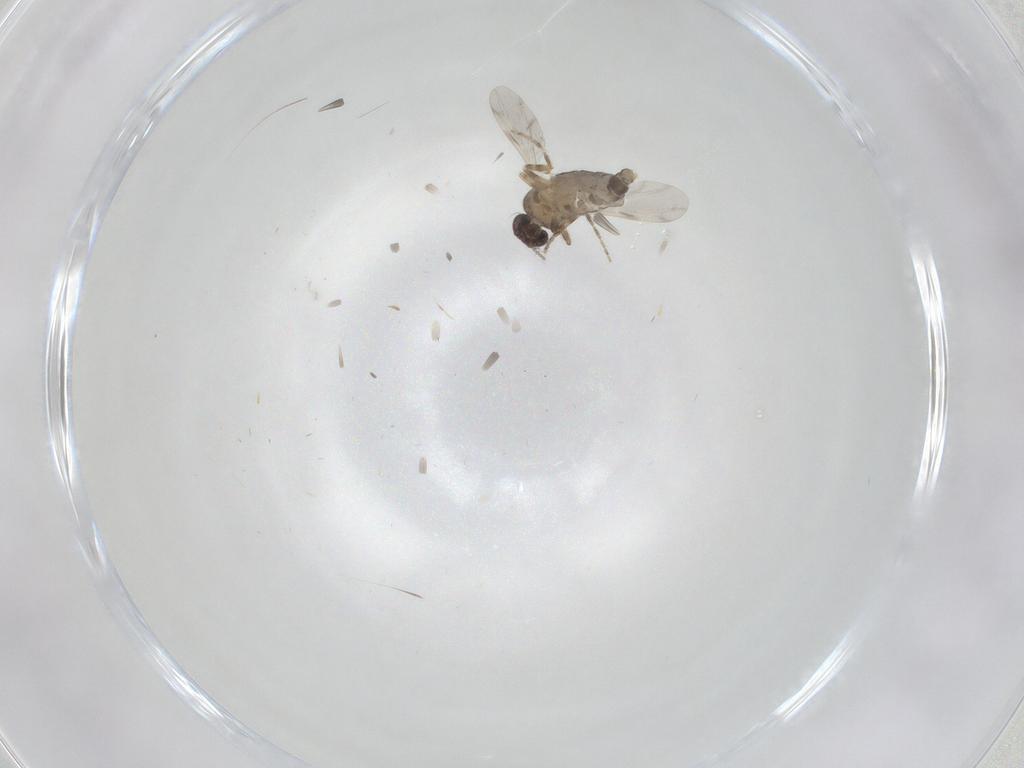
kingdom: Animalia
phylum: Arthropoda
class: Insecta
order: Diptera
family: Ceratopogonidae
